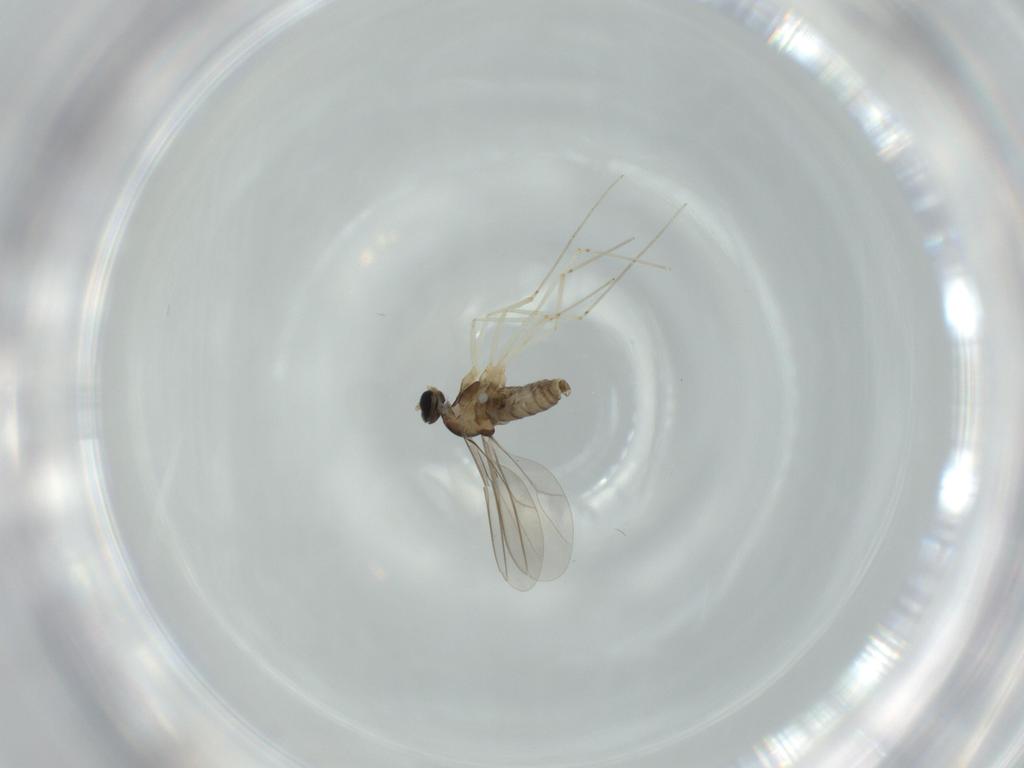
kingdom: Animalia
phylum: Arthropoda
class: Insecta
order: Diptera
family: Cecidomyiidae
